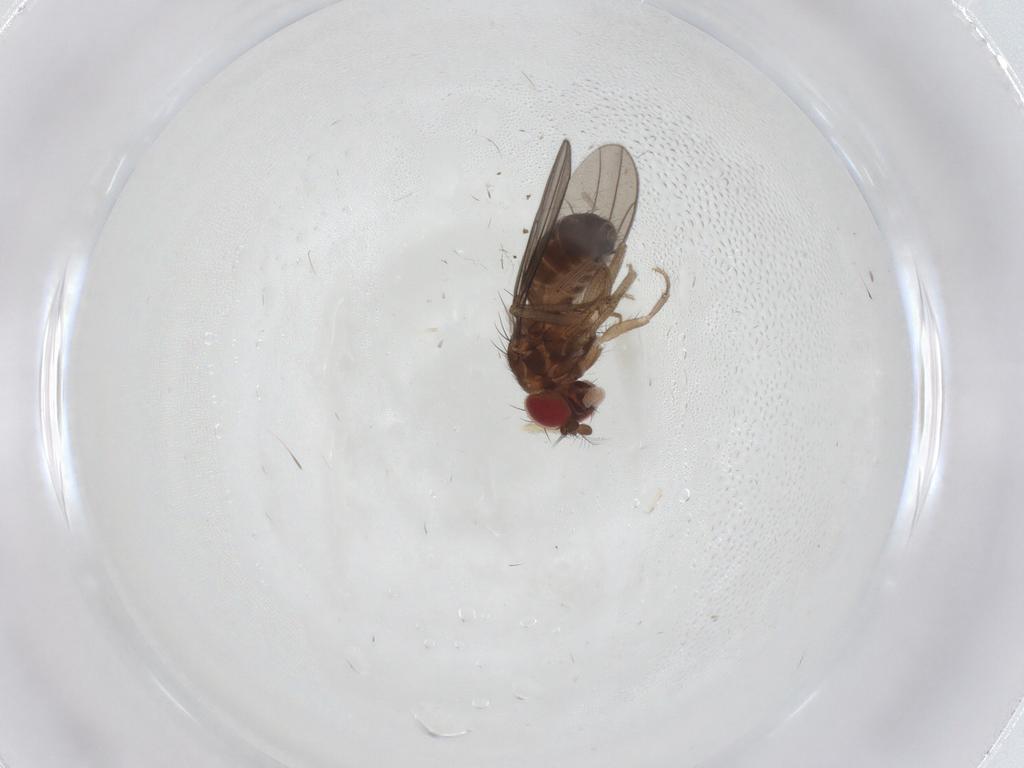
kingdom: Animalia
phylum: Arthropoda
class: Insecta
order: Diptera
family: Drosophilidae
